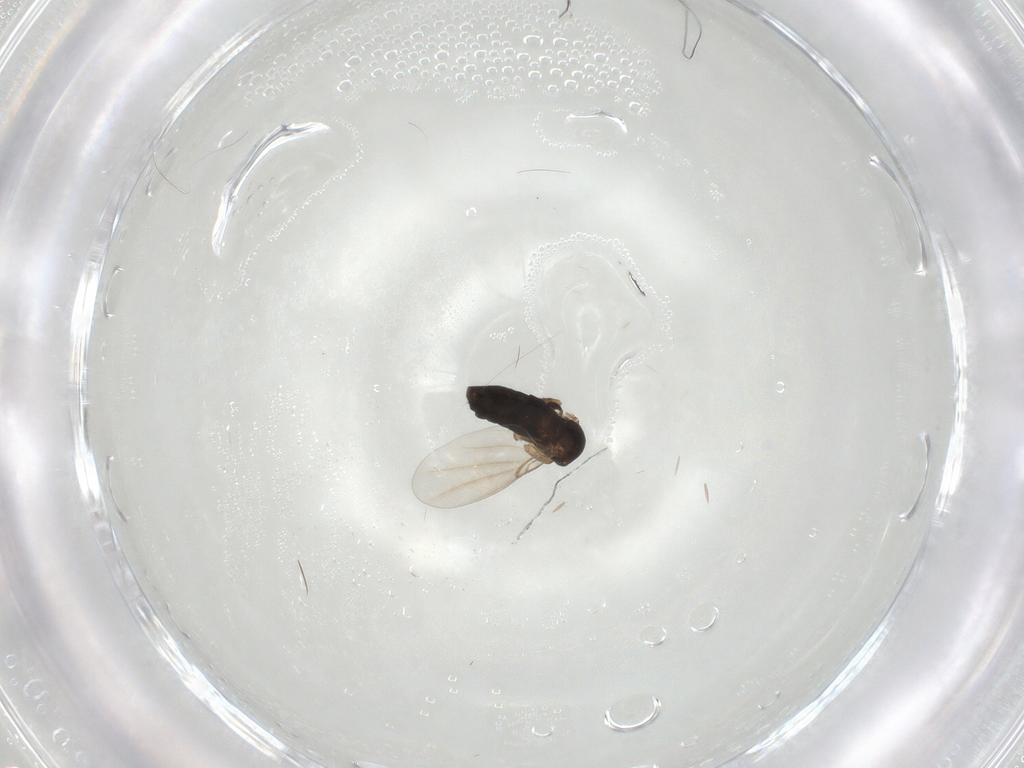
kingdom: Animalia
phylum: Arthropoda
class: Insecta
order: Diptera
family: Phoridae
